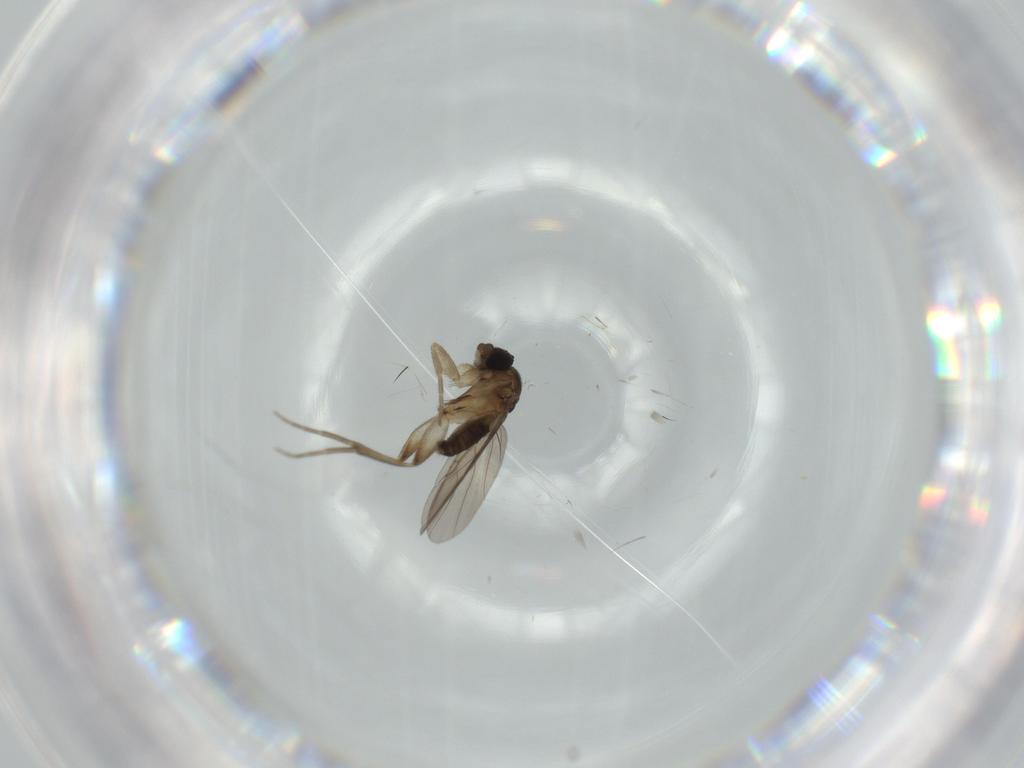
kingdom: Animalia
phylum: Arthropoda
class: Insecta
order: Diptera
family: Phoridae
